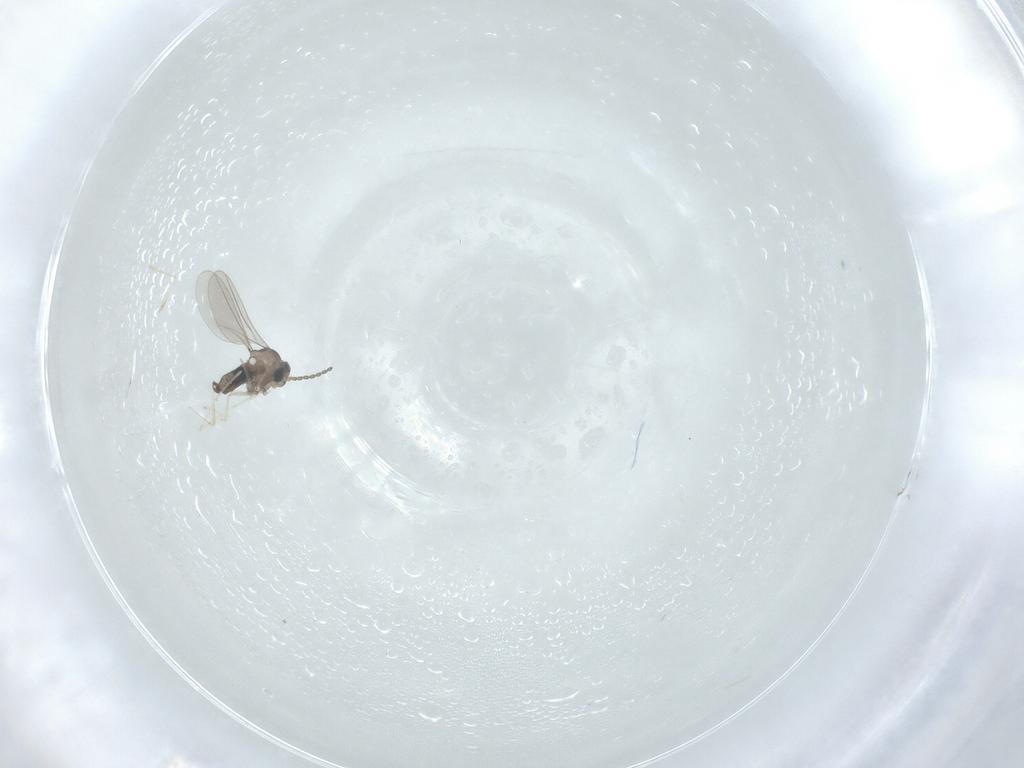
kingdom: Animalia
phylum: Arthropoda
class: Insecta
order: Diptera
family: Cecidomyiidae
